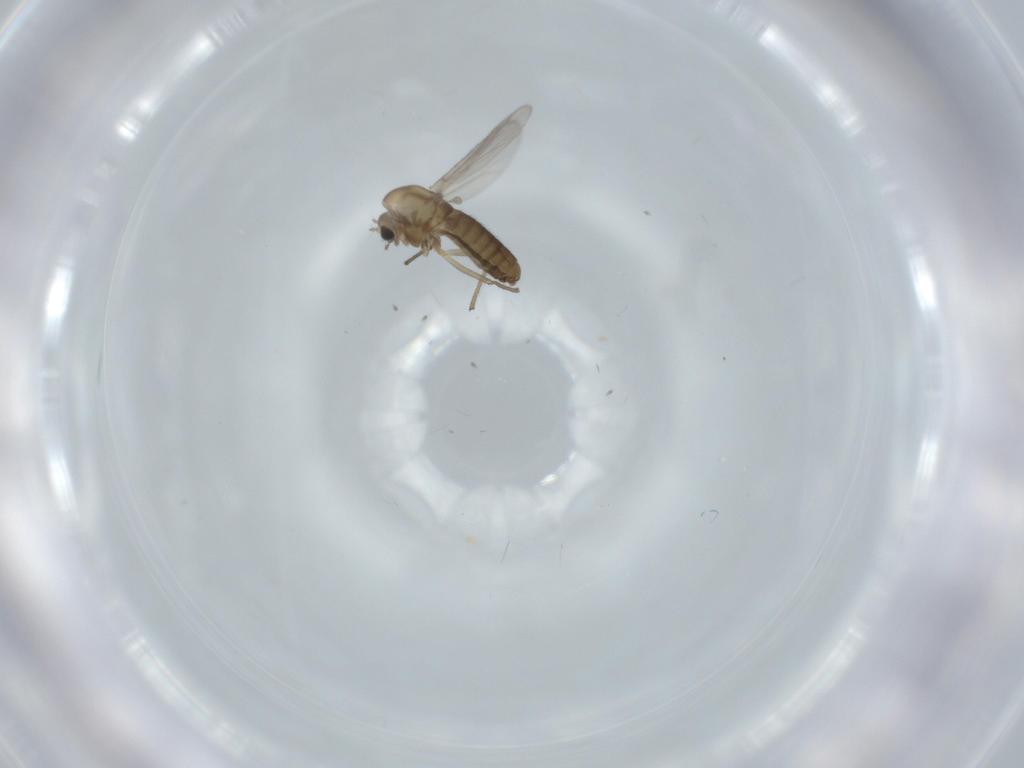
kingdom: Animalia
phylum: Arthropoda
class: Insecta
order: Diptera
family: Chironomidae
